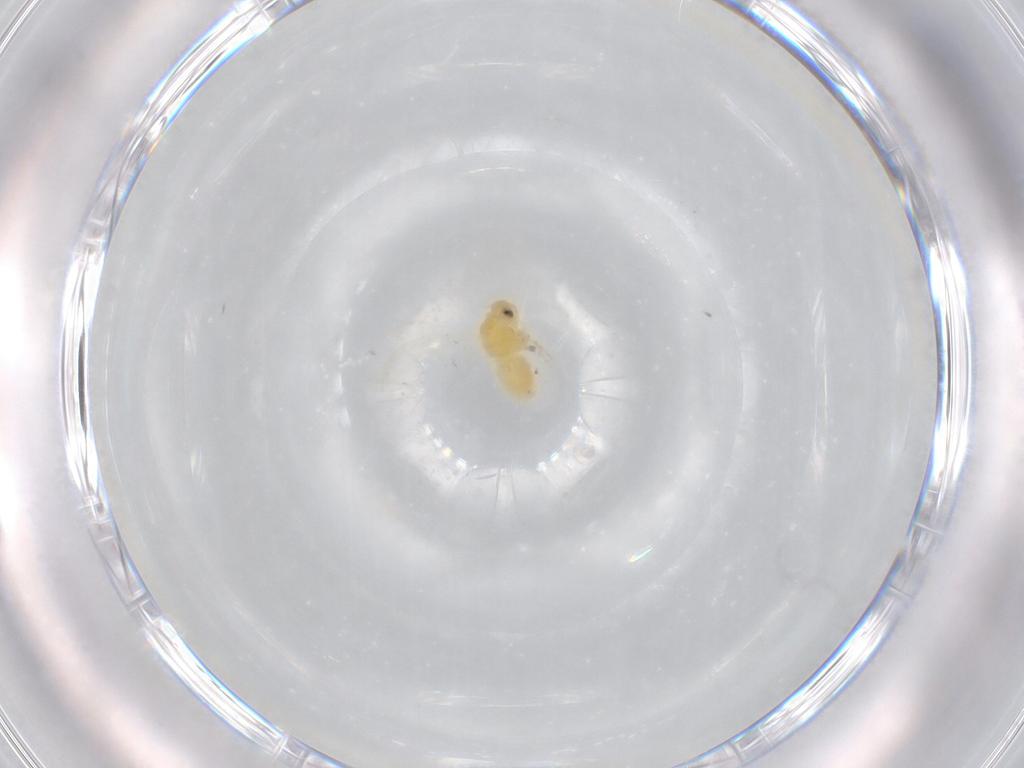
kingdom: Animalia
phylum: Arthropoda
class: Insecta
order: Hemiptera
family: Aleyrodidae
